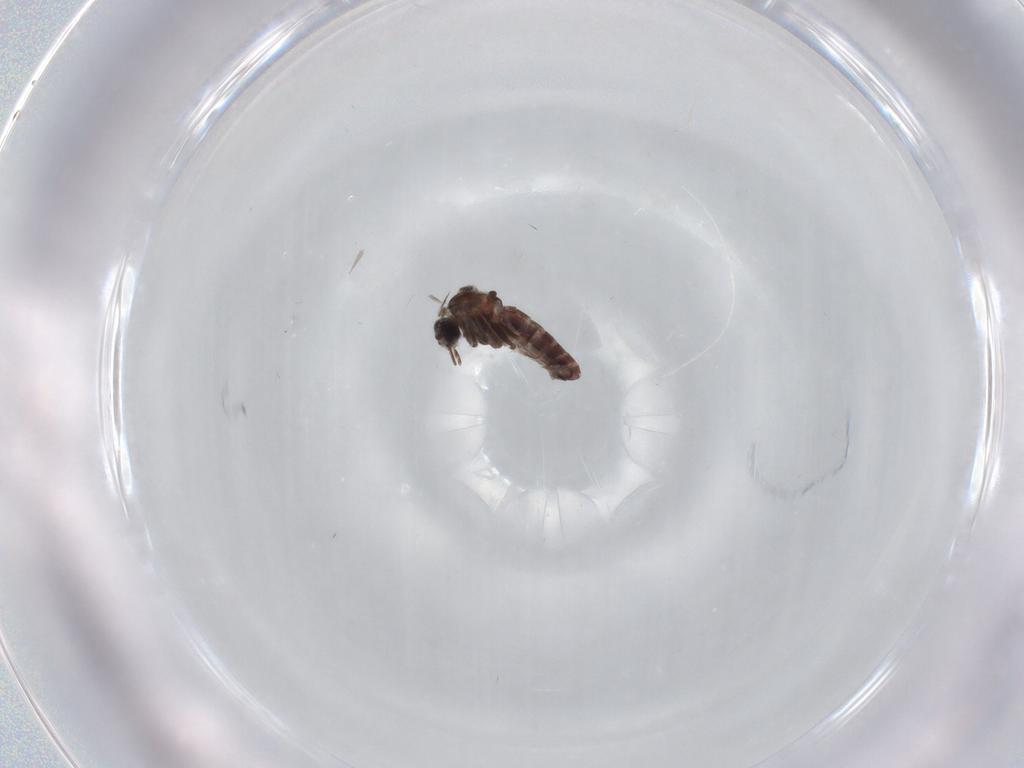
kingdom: Animalia
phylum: Arthropoda
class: Insecta
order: Diptera
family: Ceratopogonidae
